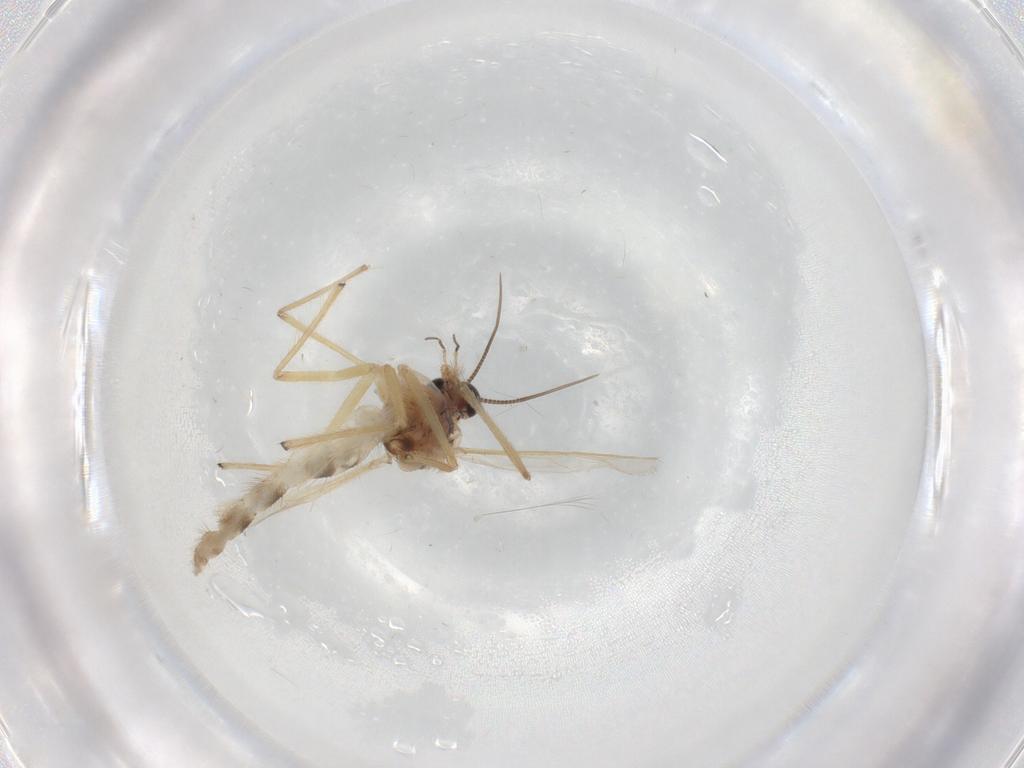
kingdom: Animalia
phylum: Arthropoda
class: Insecta
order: Diptera
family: Chironomidae
